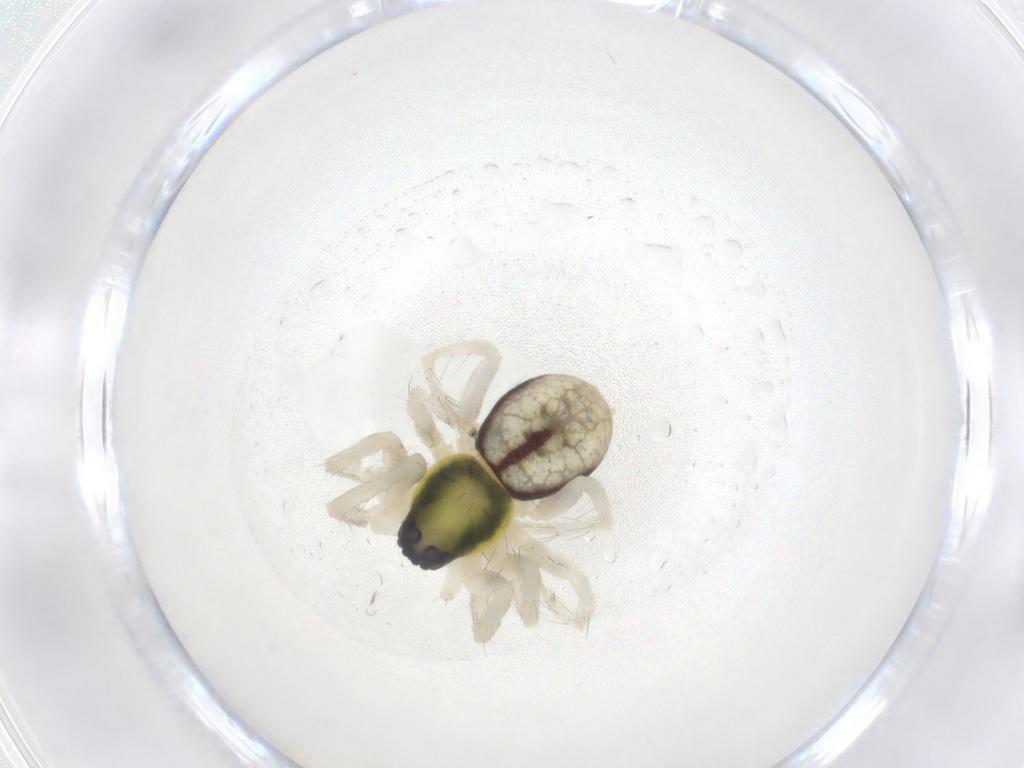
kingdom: Animalia
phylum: Arthropoda
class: Arachnida
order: Araneae
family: Anyphaenidae
